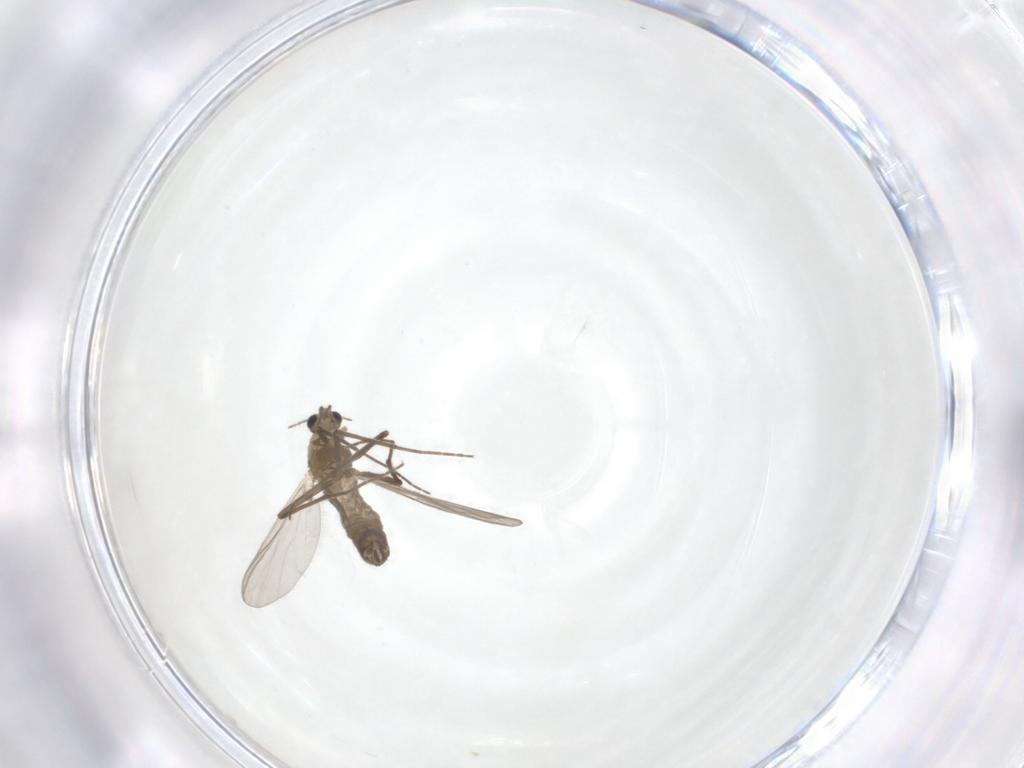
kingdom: Animalia
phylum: Arthropoda
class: Insecta
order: Diptera
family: Chironomidae
